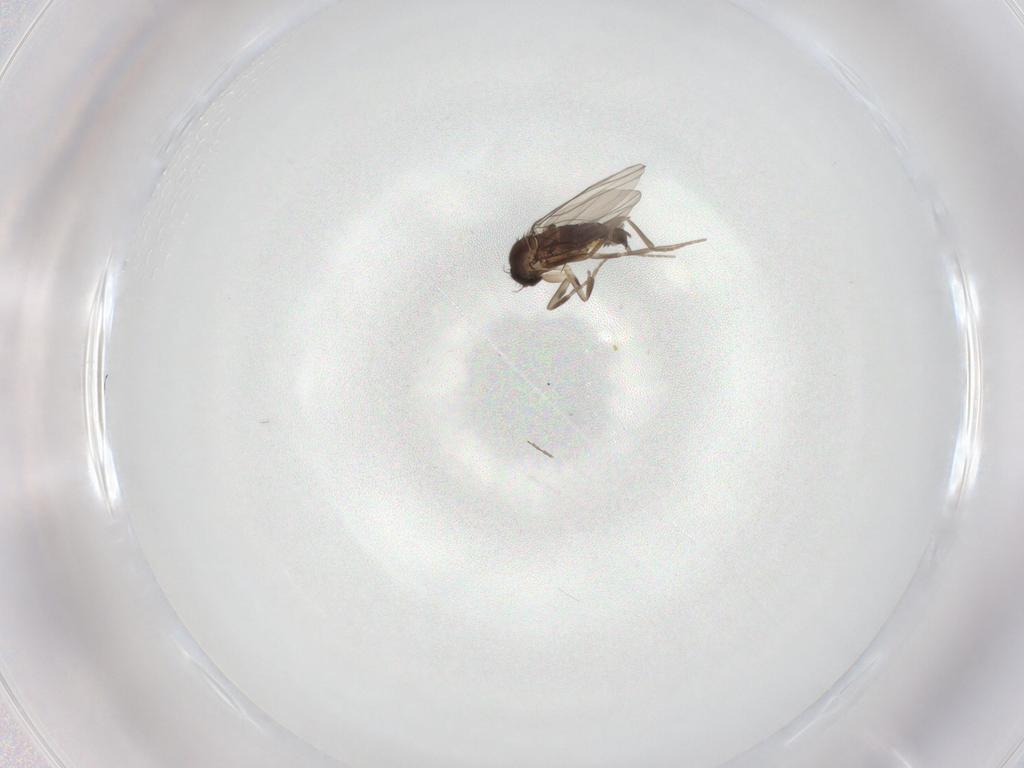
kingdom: Animalia
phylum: Arthropoda
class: Insecta
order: Diptera
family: Phoridae
